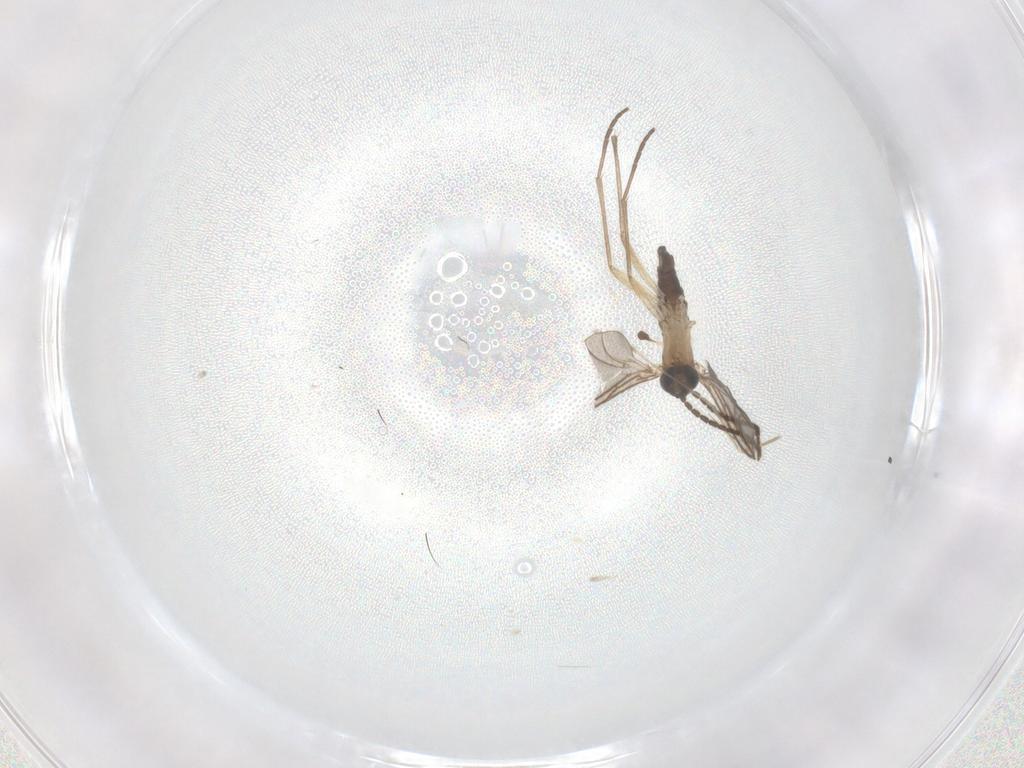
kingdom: Animalia
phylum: Arthropoda
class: Insecta
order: Diptera
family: Sciaridae
